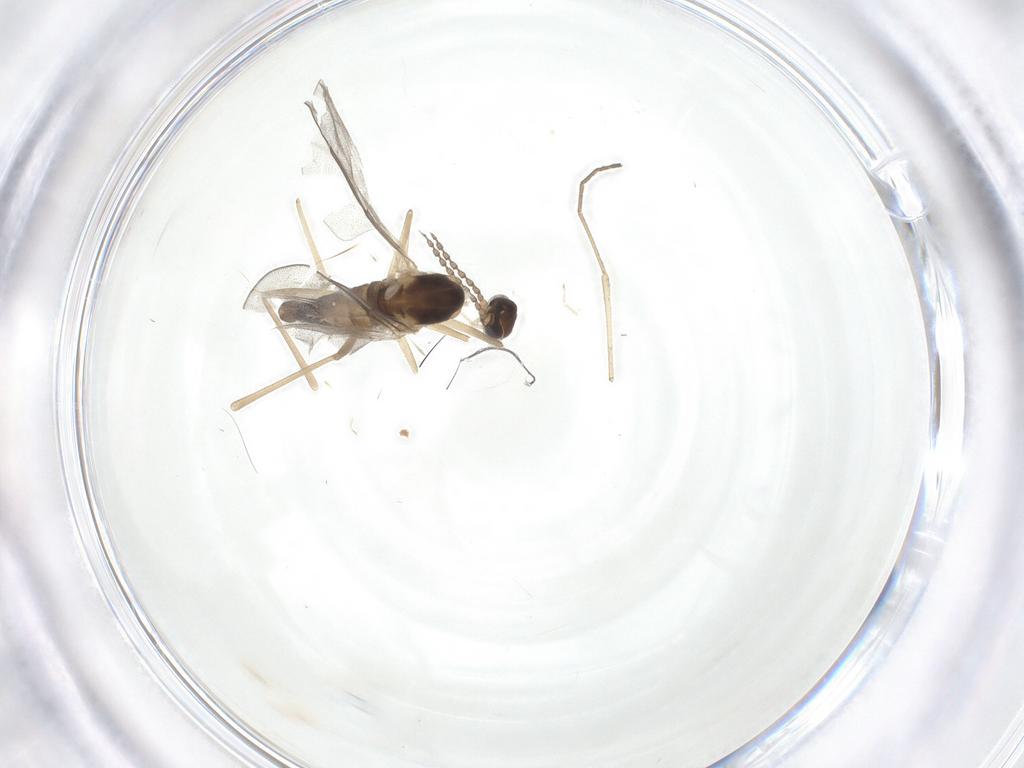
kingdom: Animalia
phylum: Arthropoda
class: Insecta
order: Diptera
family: Cecidomyiidae
